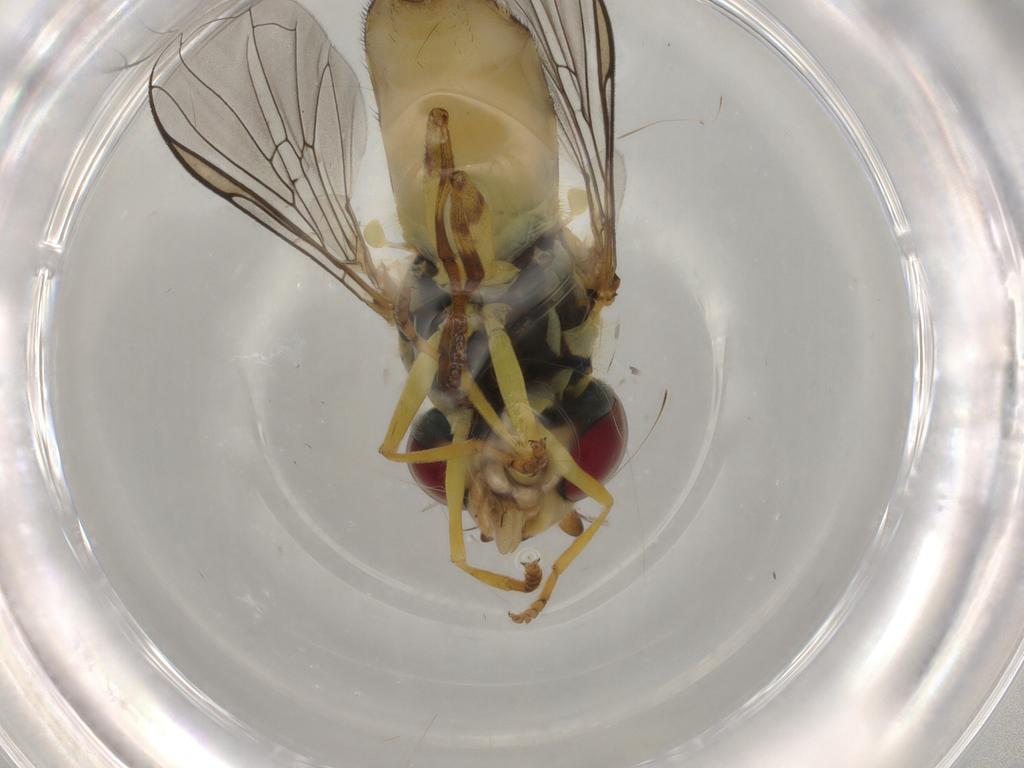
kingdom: Animalia
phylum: Arthropoda
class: Insecta
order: Diptera
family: Syrphidae
